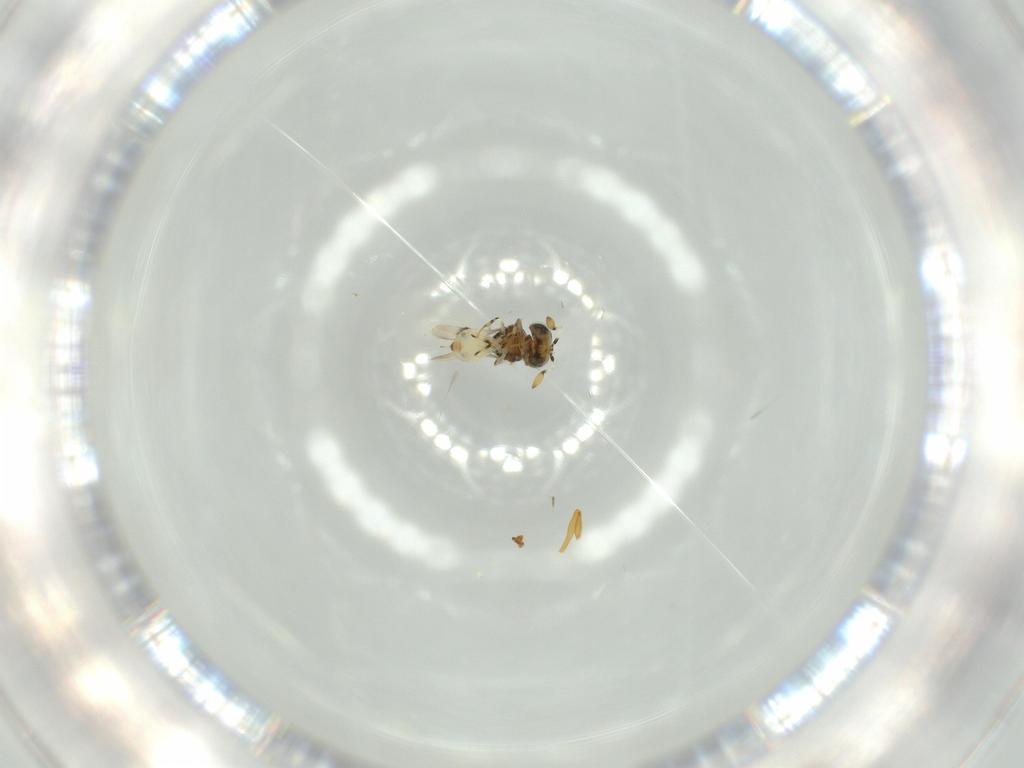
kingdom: Animalia
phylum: Arthropoda
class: Insecta
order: Hymenoptera
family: Scelionidae
